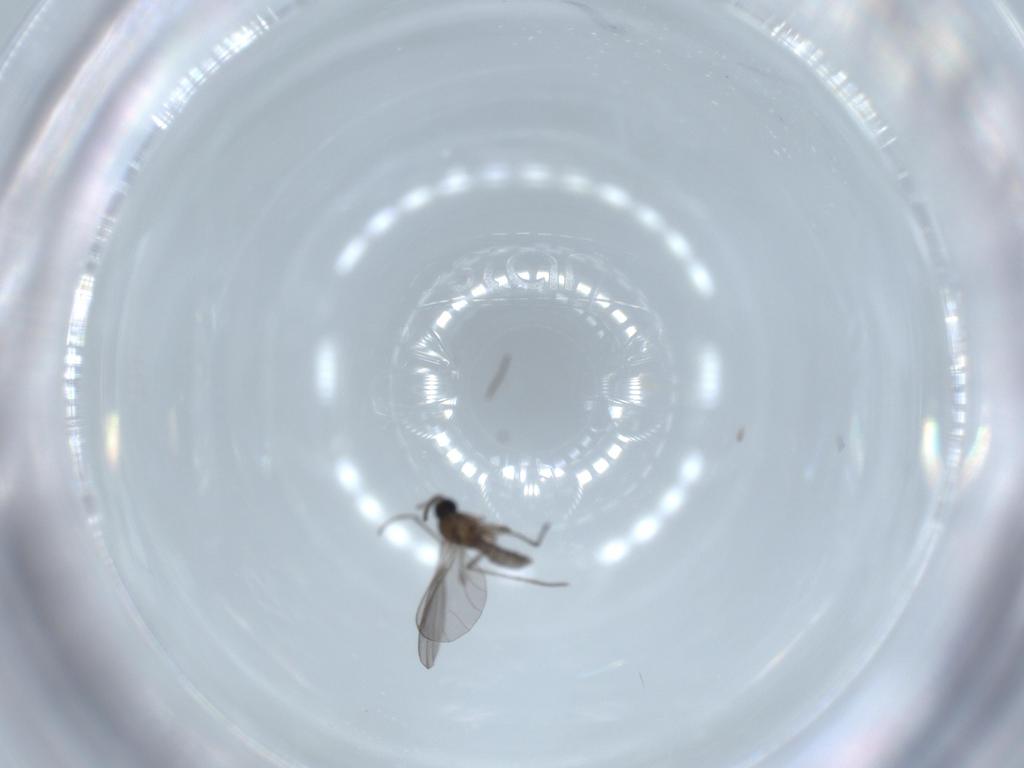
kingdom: Animalia
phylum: Arthropoda
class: Insecta
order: Diptera
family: Sciaridae
